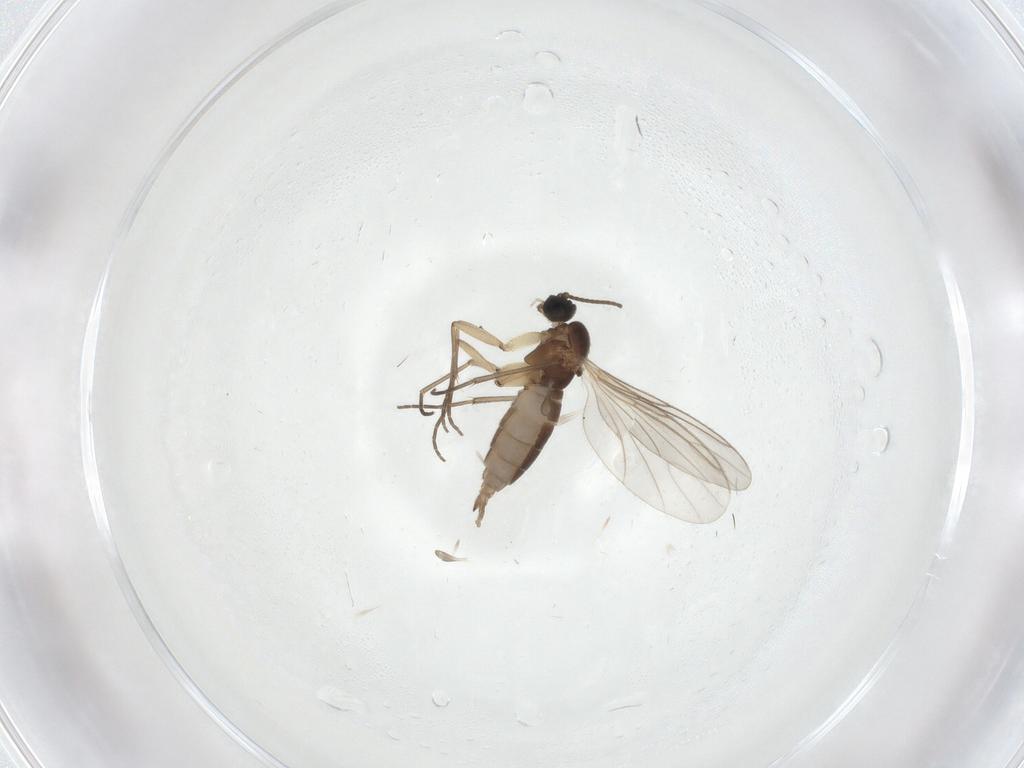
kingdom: Animalia
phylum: Arthropoda
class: Insecta
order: Diptera
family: Sciaridae
